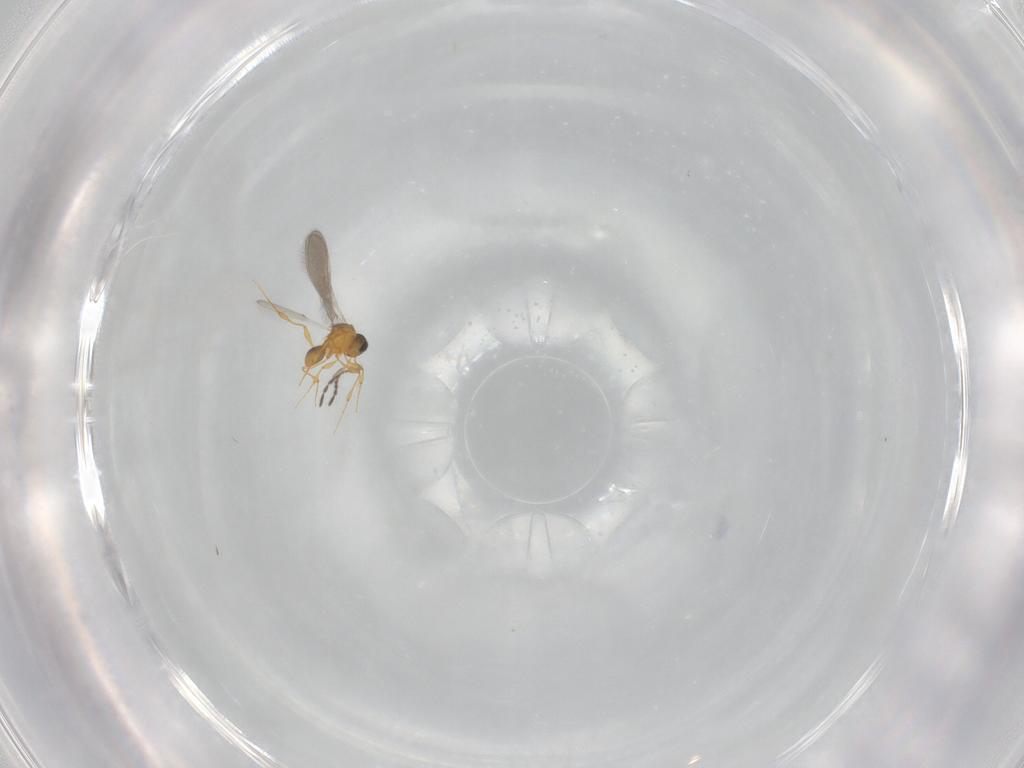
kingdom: Animalia
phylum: Arthropoda
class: Insecta
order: Hymenoptera
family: Platygastridae
